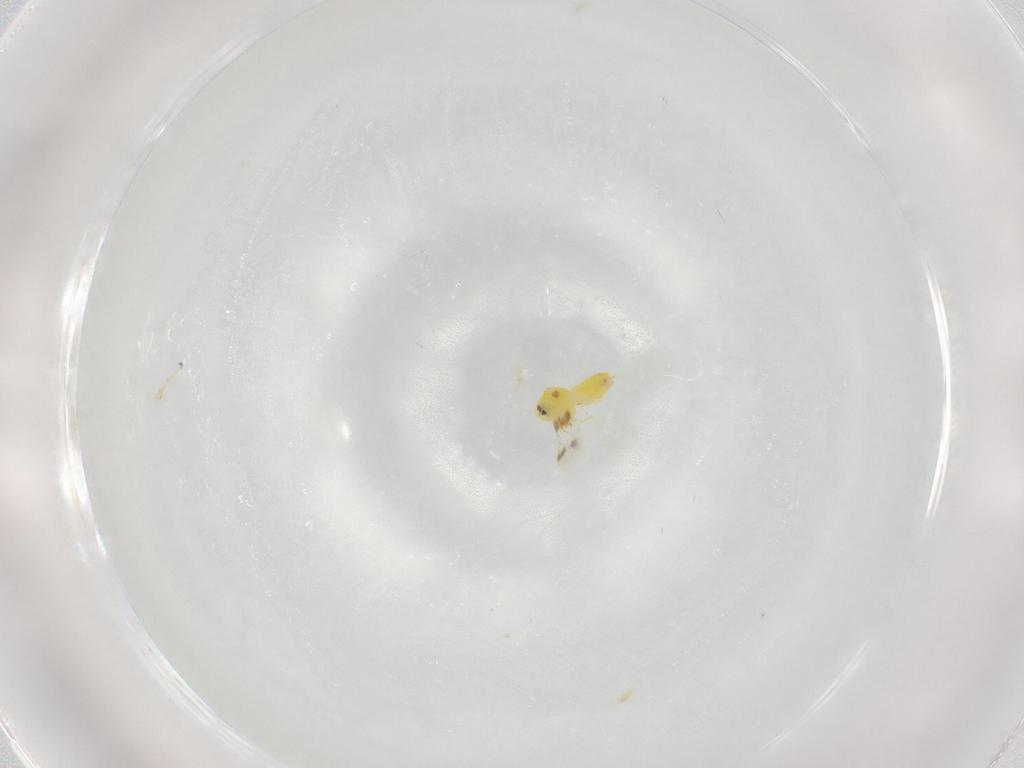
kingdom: Animalia
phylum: Arthropoda
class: Insecta
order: Hemiptera
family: Aleyrodidae
